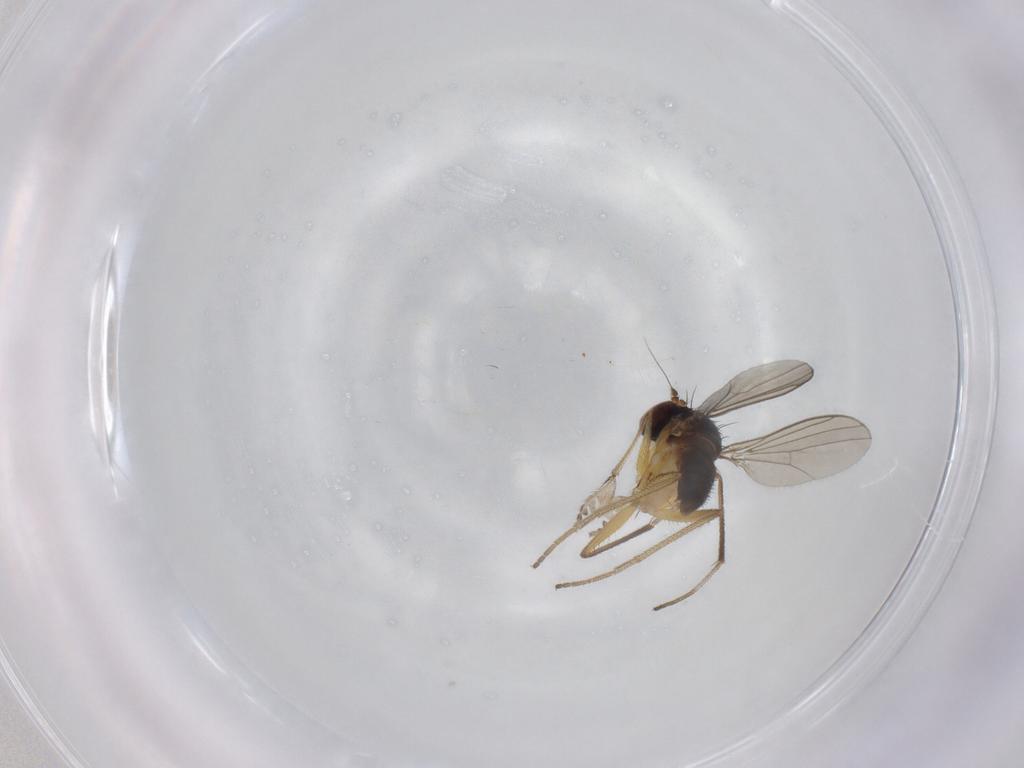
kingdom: Animalia
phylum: Arthropoda
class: Insecta
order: Diptera
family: Dolichopodidae
